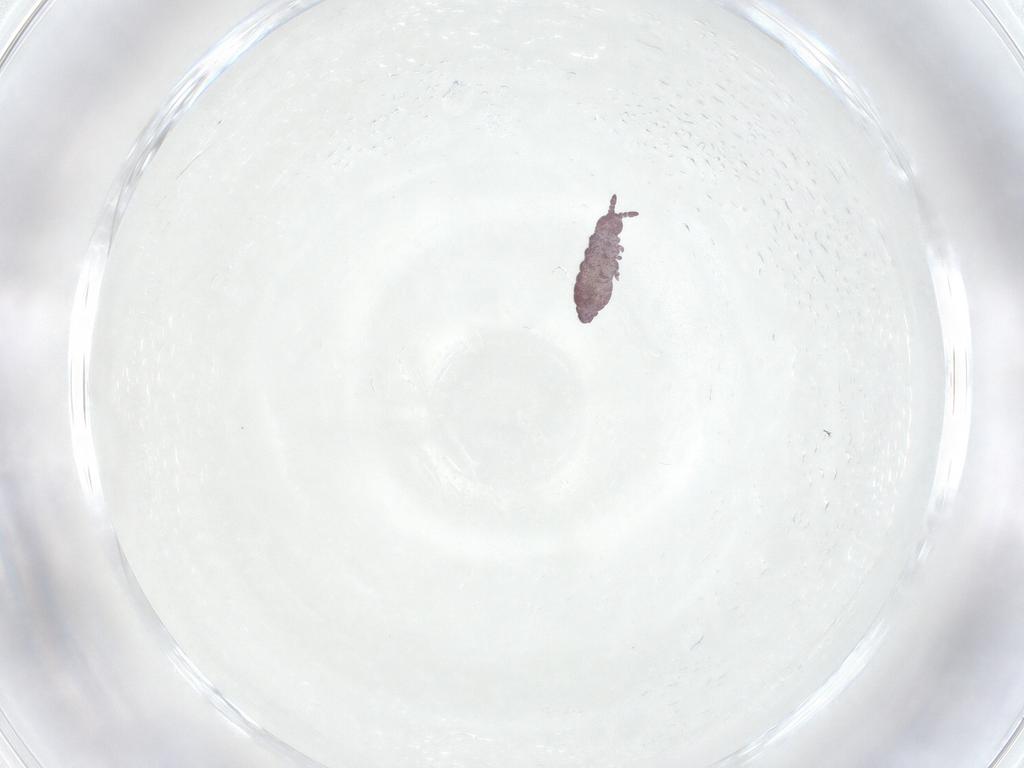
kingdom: Animalia
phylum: Arthropoda
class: Collembola
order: Poduromorpha
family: Hypogastruridae
